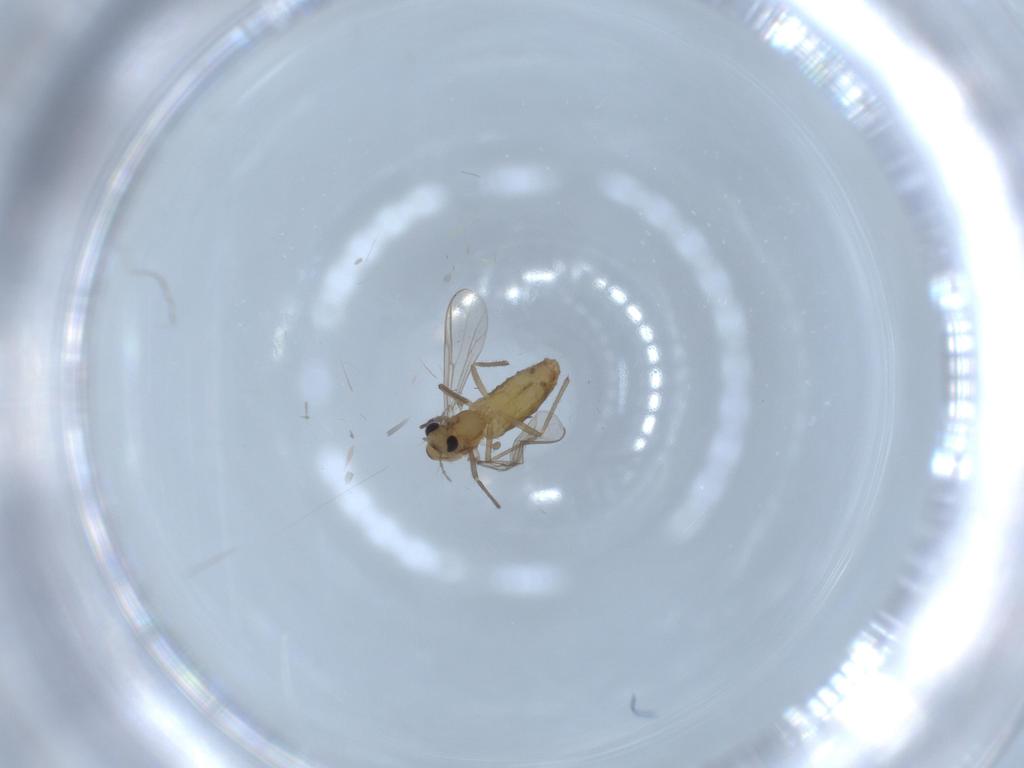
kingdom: Animalia
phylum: Arthropoda
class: Insecta
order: Diptera
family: Chironomidae
